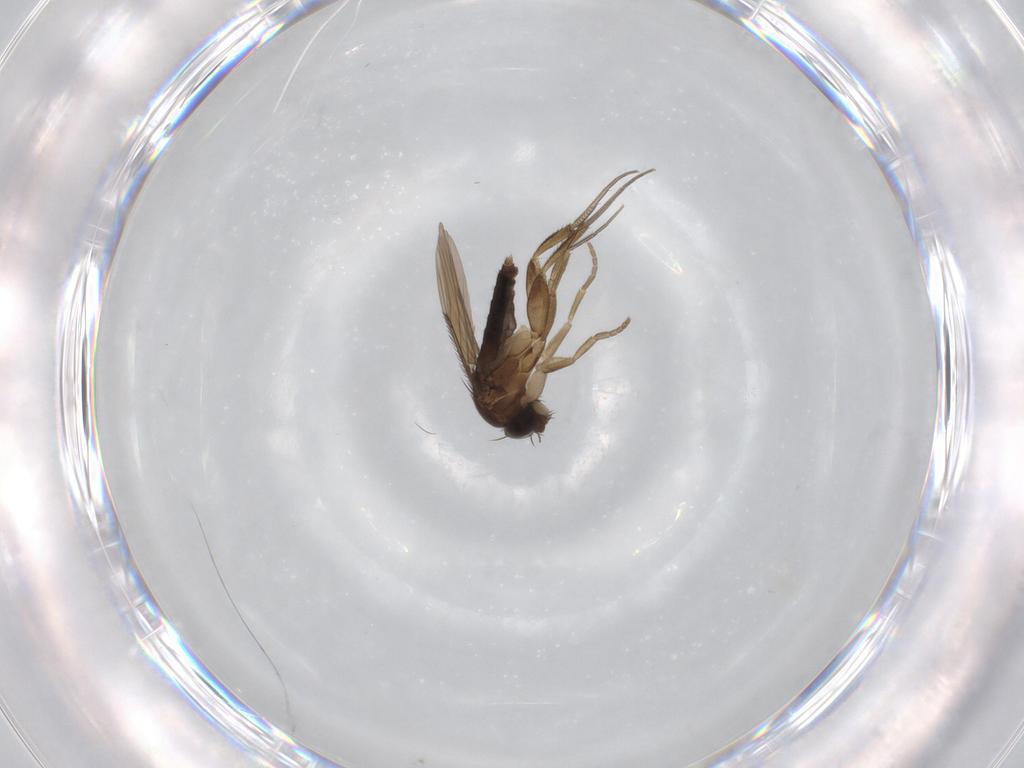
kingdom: Animalia
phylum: Arthropoda
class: Insecta
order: Diptera
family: Phoridae
